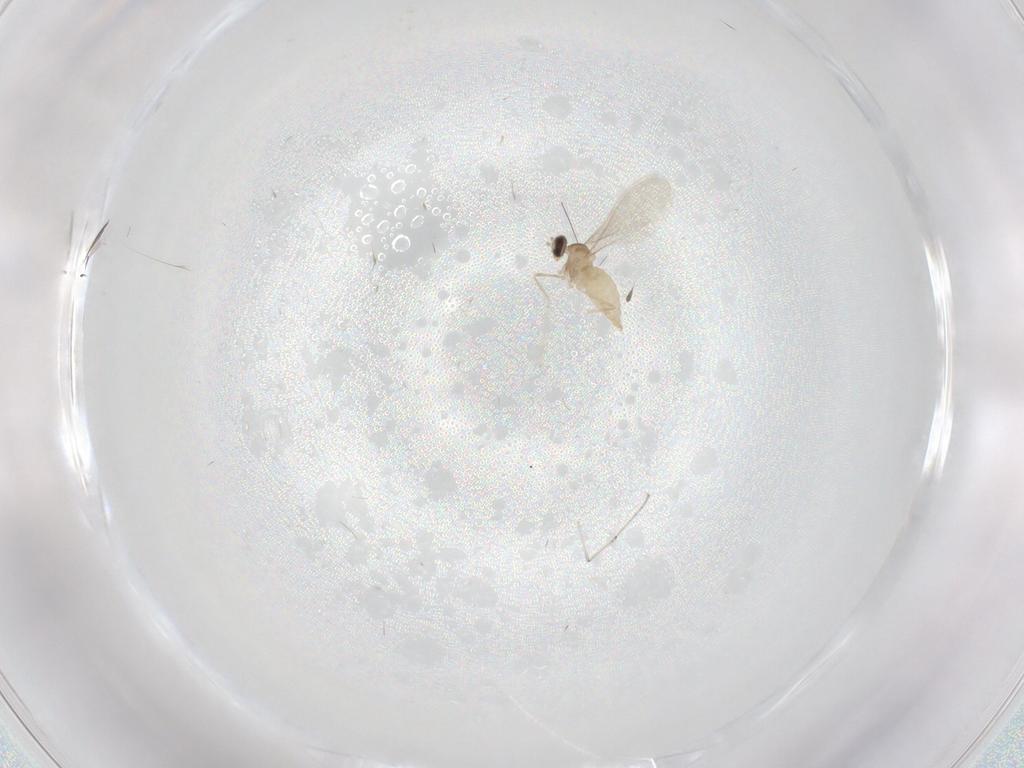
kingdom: Animalia
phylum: Arthropoda
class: Insecta
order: Diptera
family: Cecidomyiidae
